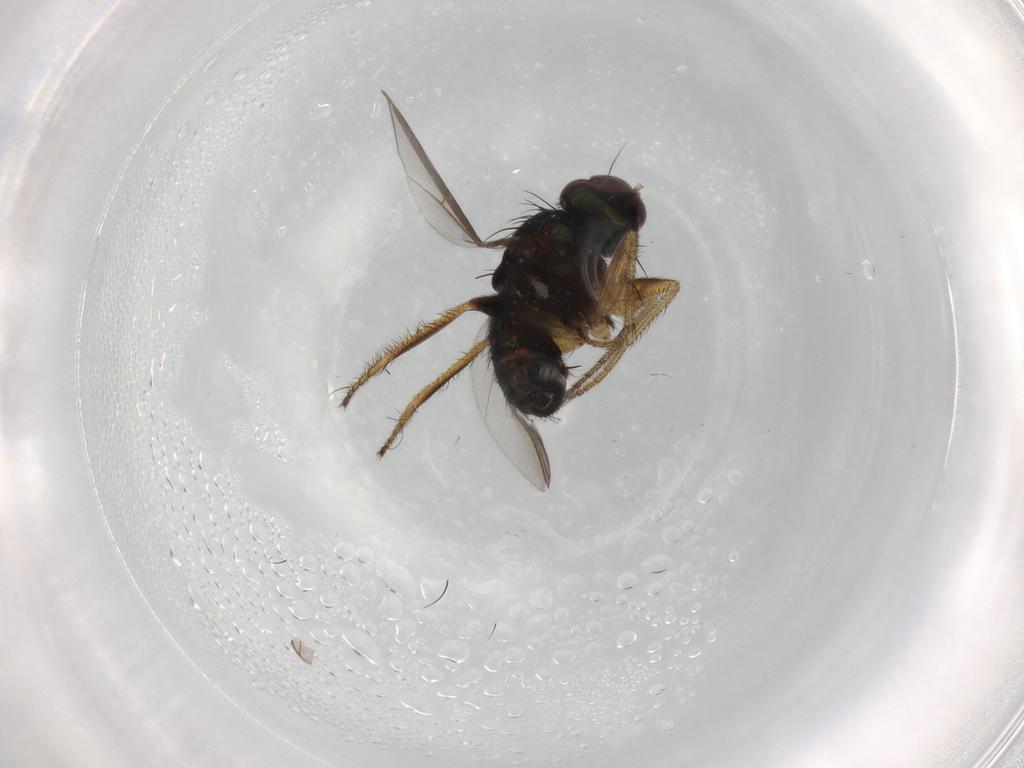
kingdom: Animalia
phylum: Arthropoda
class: Insecta
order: Diptera
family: Dolichopodidae
